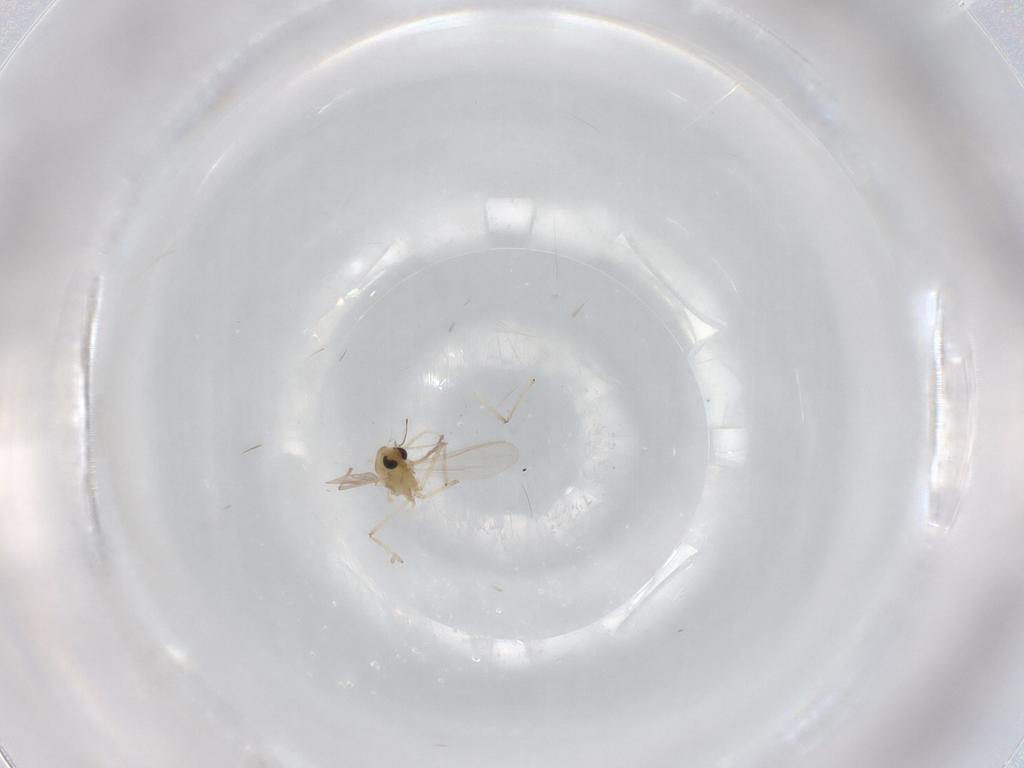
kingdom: Animalia
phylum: Arthropoda
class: Insecta
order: Diptera
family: Chironomidae
